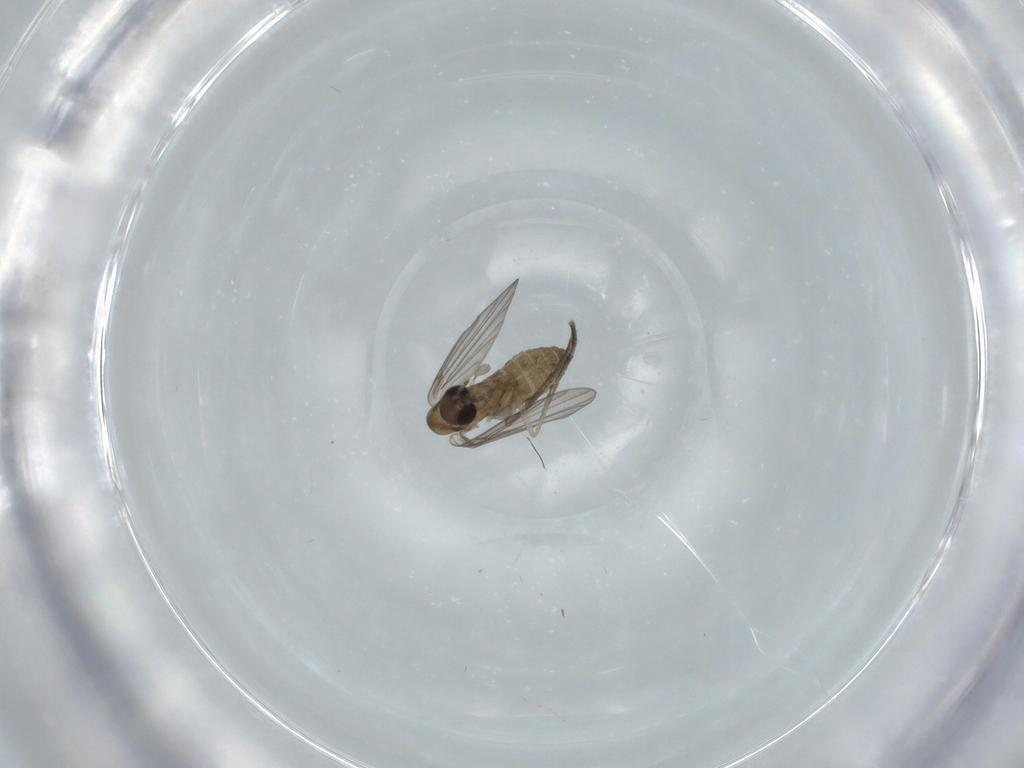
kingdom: Animalia
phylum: Arthropoda
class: Insecta
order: Diptera
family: Psychodidae
